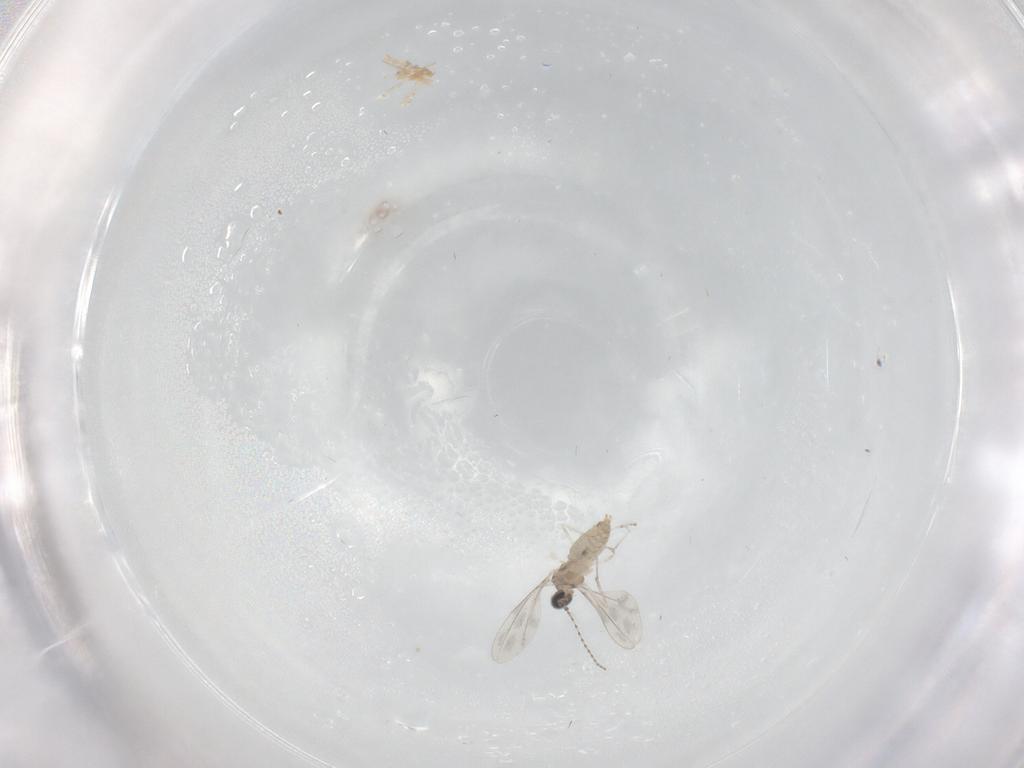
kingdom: Animalia
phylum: Arthropoda
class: Insecta
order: Diptera
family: Cecidomyiidae
